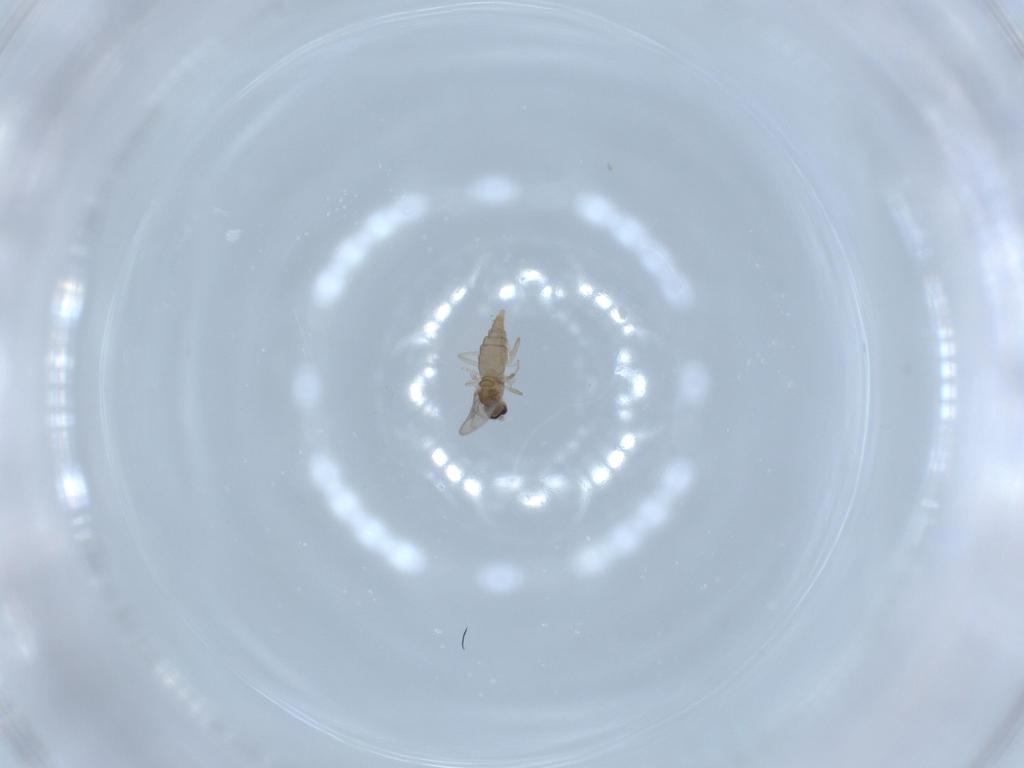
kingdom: Animalia
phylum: Arthropoda
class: Insecta
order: Diptera
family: Cecidomyiidae
